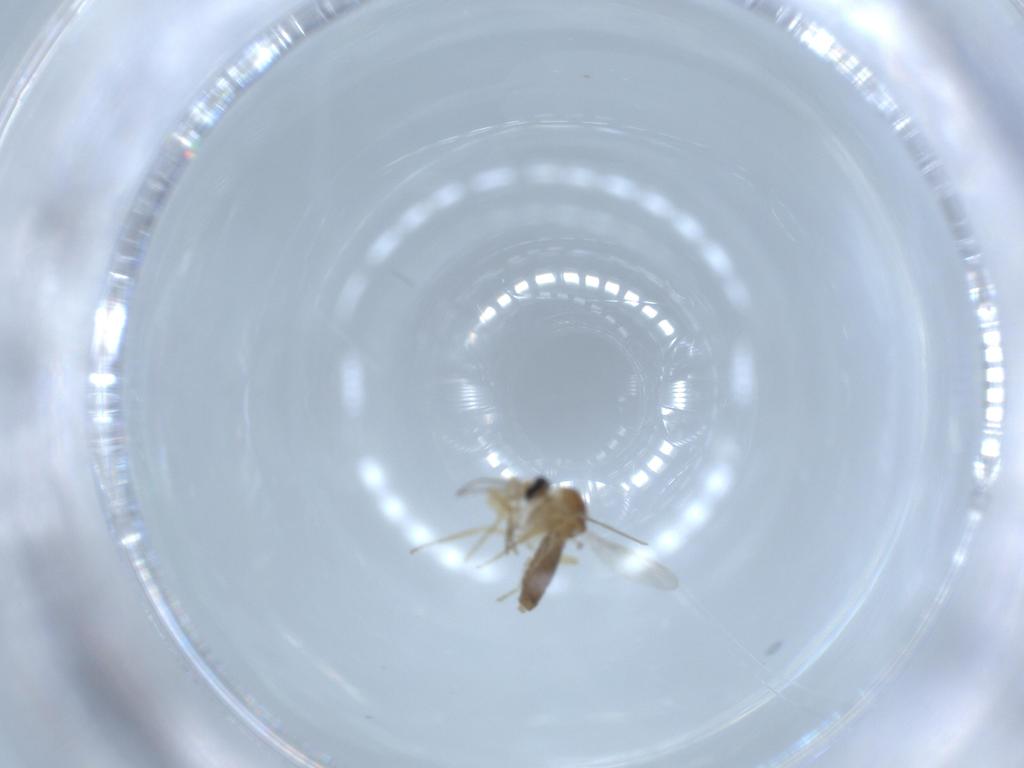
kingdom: Animalia
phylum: Arthropoda
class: Insecta
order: Diptera
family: Ceratopogonidae
